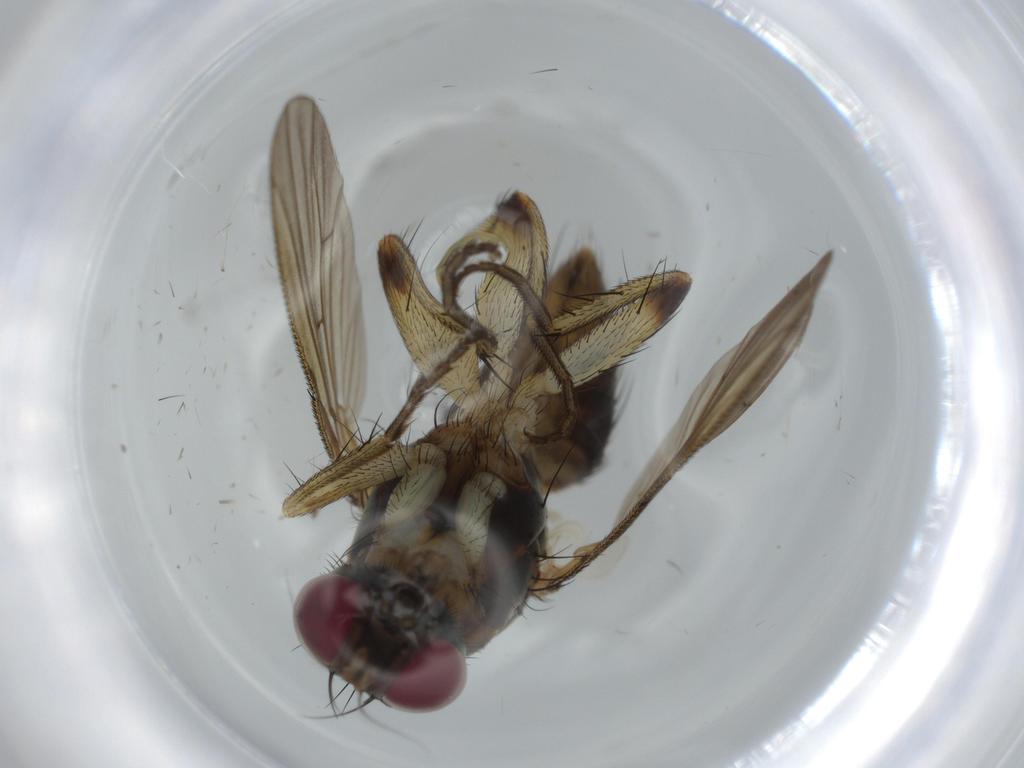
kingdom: Animalia
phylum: Arthropoda
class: Insecta
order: Diptera
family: Muscidae
